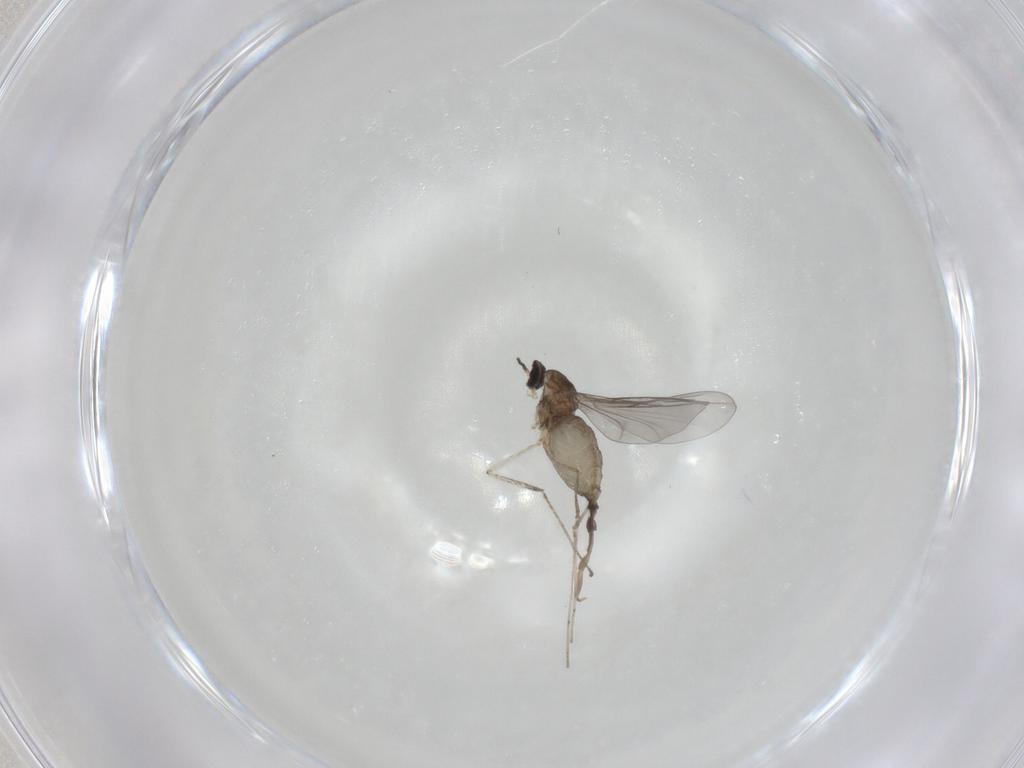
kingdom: Animalia
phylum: Arthropoda
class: Insecta
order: Diptera
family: Cecidomyiidae
